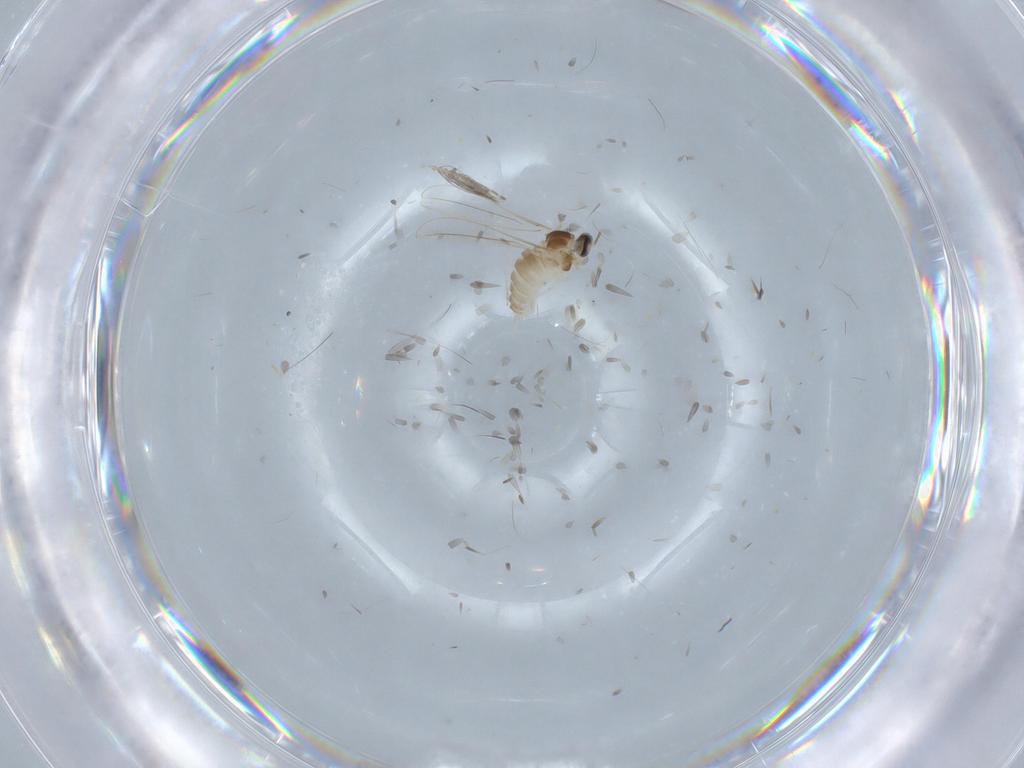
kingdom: Animalia
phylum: Arthropoda
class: Insecta
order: Diptera
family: Cecidomyiidae
